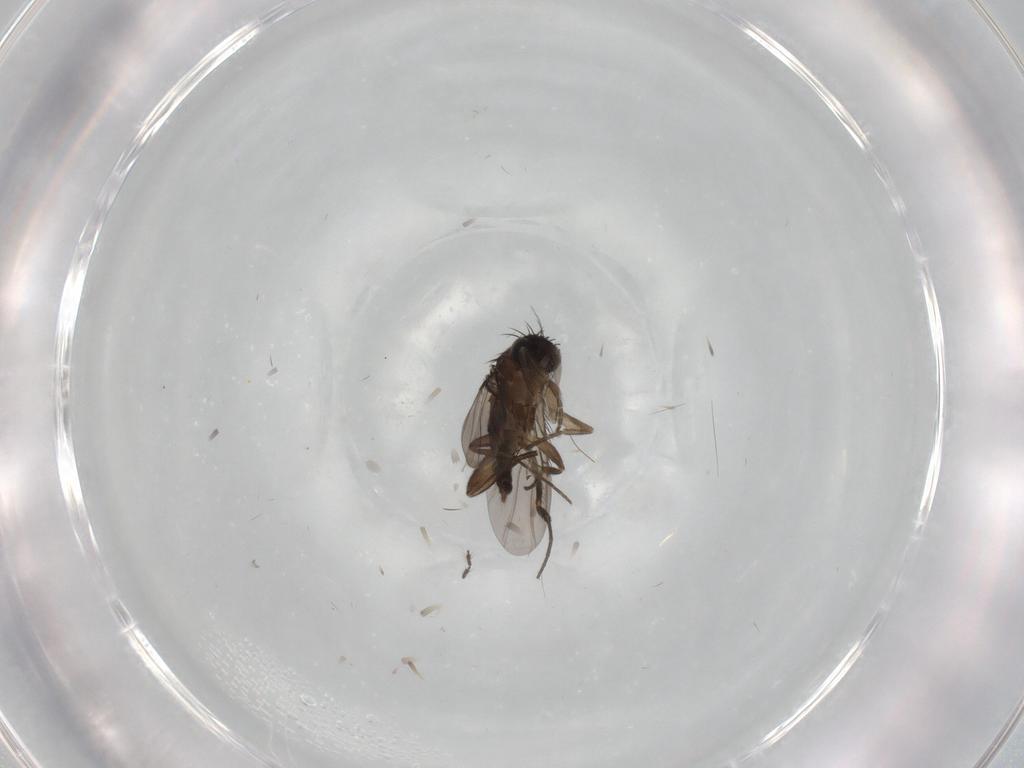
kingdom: Animalia
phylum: Arthropoda
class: Insecta
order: Diptera
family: Phoridae
